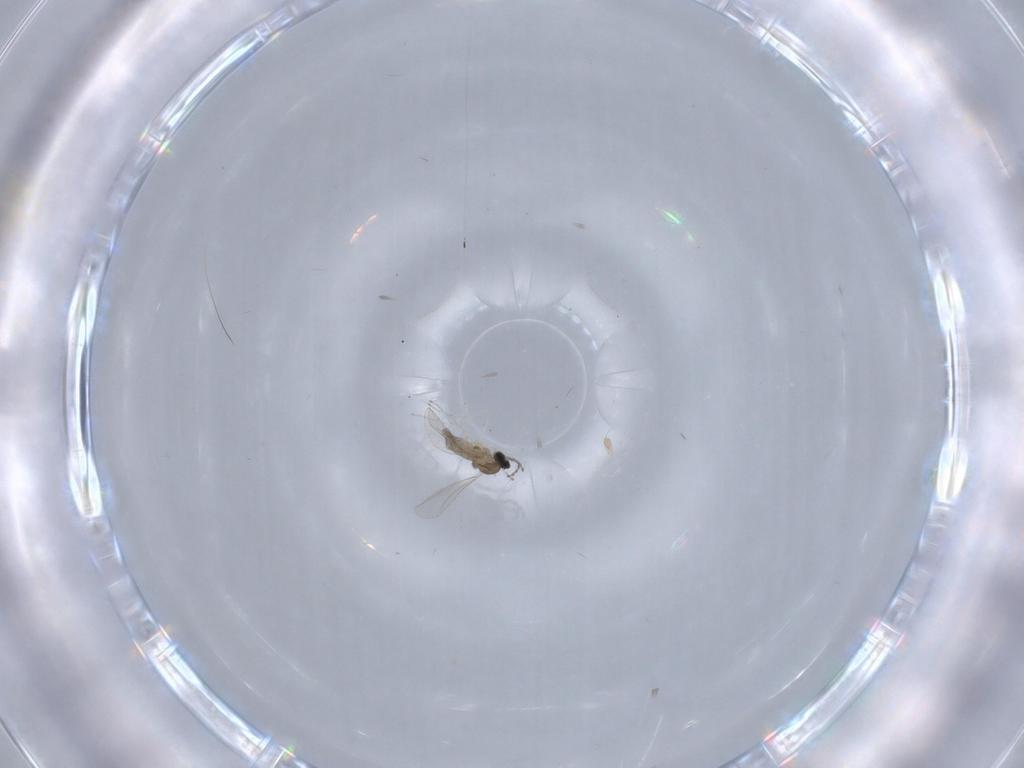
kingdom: Animalia
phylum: Arthropoda
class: Insecta
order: Diptera
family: Cecidomyiidae
